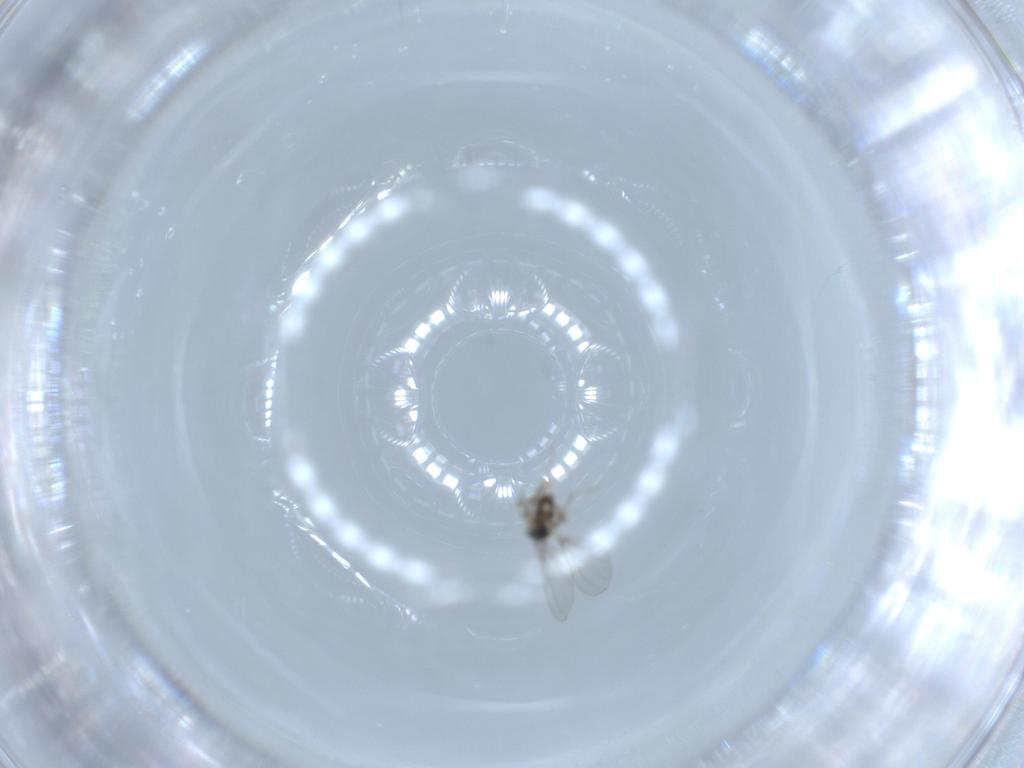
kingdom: Animalia
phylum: Arthropoda
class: Insecta
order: Diptera
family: Cecidomyiidae
